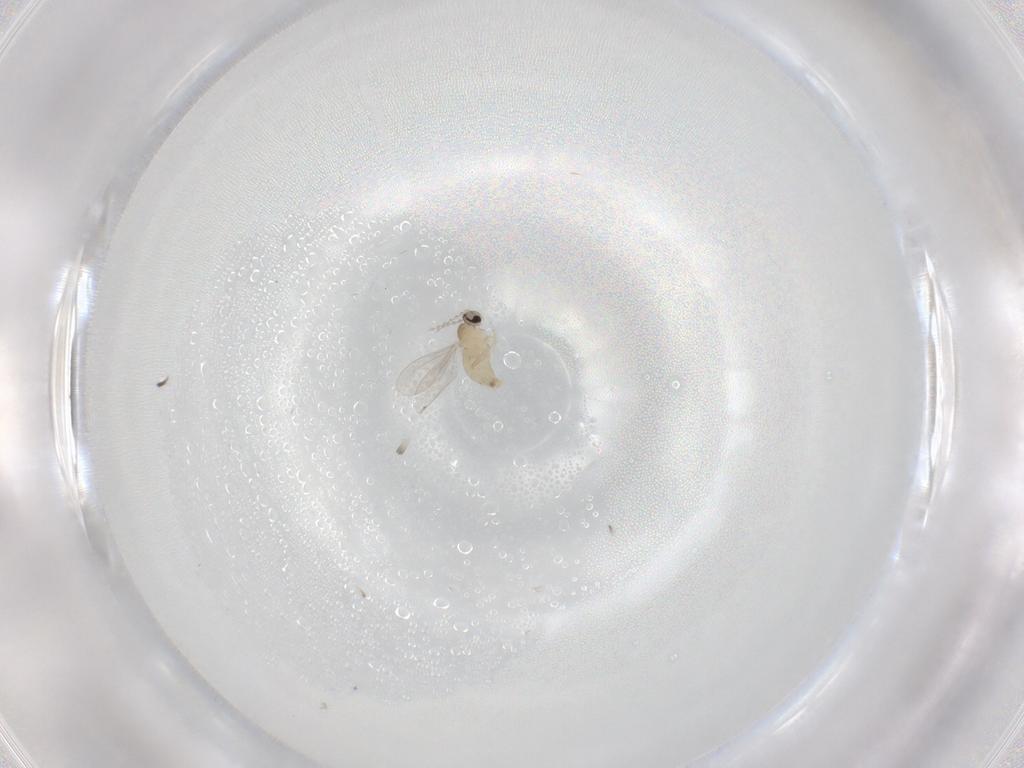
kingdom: Animalia
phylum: Arthropoda
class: Insecta
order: Diptera
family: Cecidomyiidae
